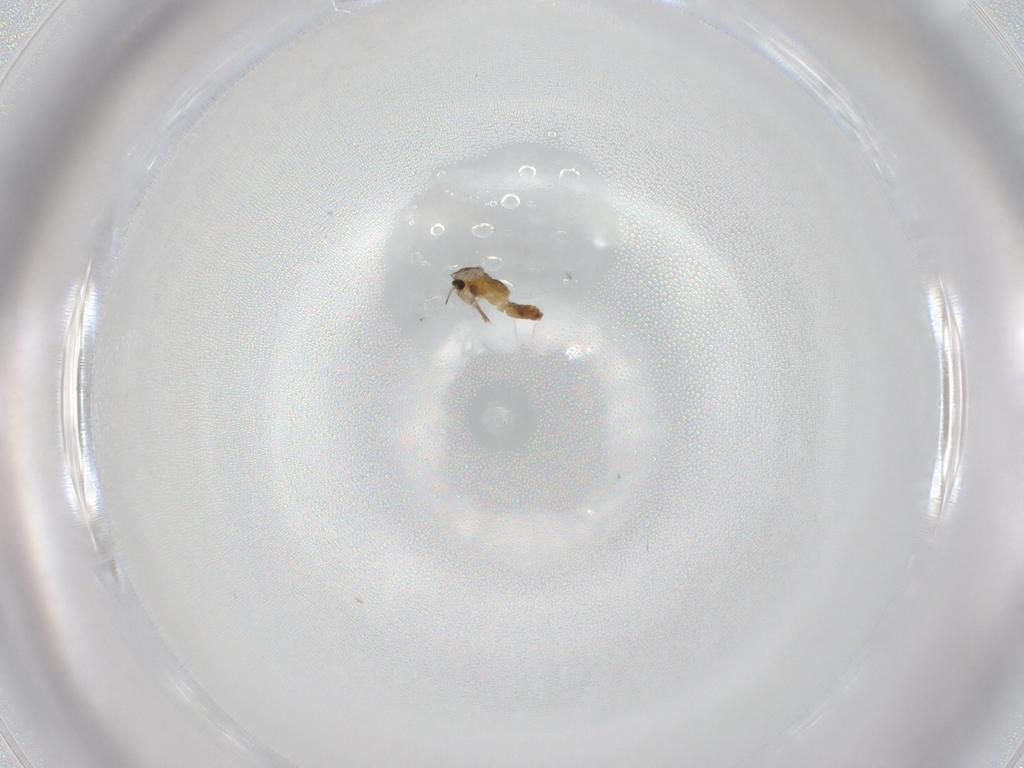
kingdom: Animalia
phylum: Arthropoda
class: Insecta
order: Diptera
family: Chironomidae
